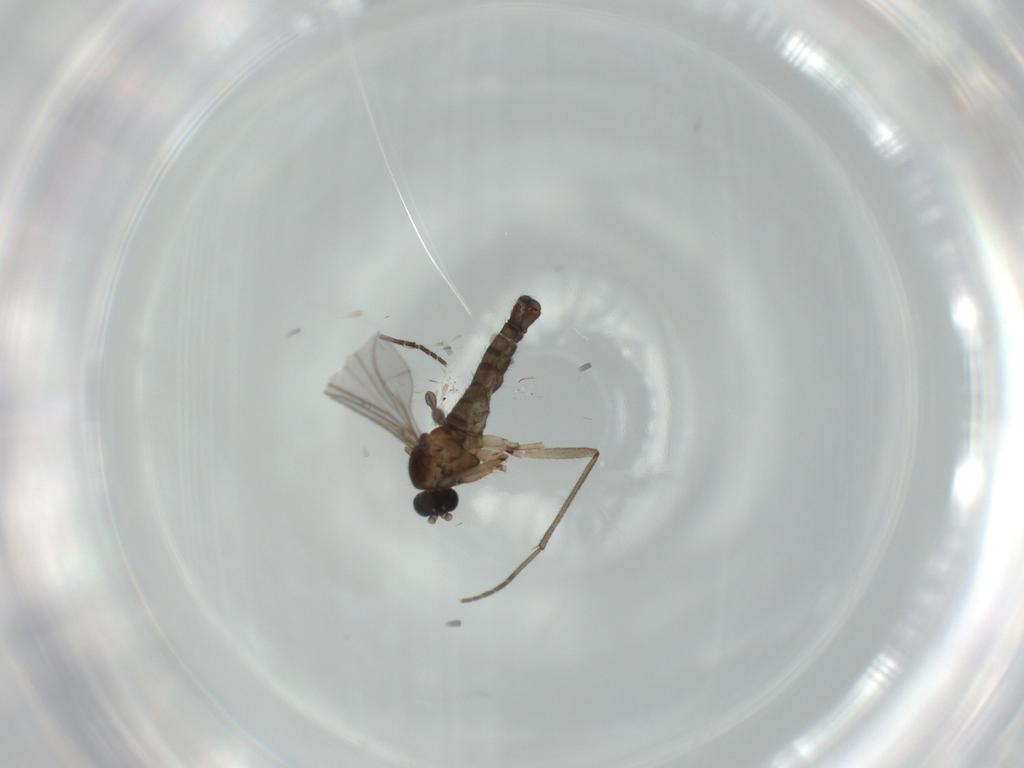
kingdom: Animalia
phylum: Arthropoda
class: Insecta
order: Diptera
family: Sciaridae
